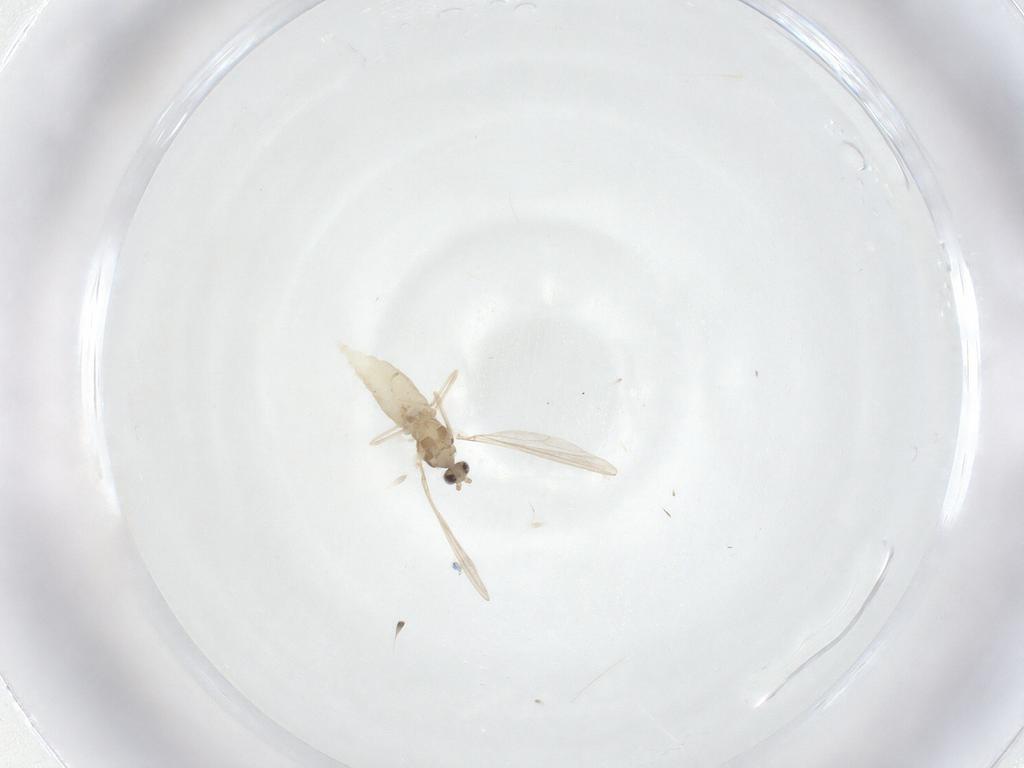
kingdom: Animalia
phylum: Arthropoda
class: Insecta
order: Diptera
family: Cecidomyiidae
